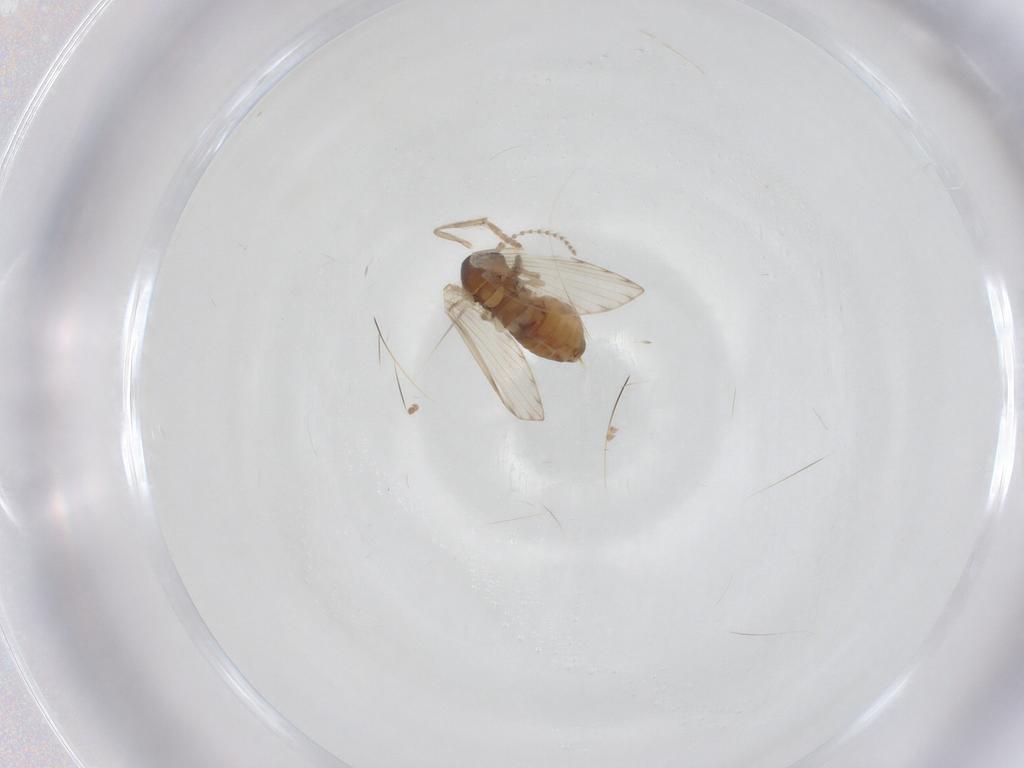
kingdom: Animalia
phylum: Arthropoda
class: Insecta
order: Diptera
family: Psychodidae
